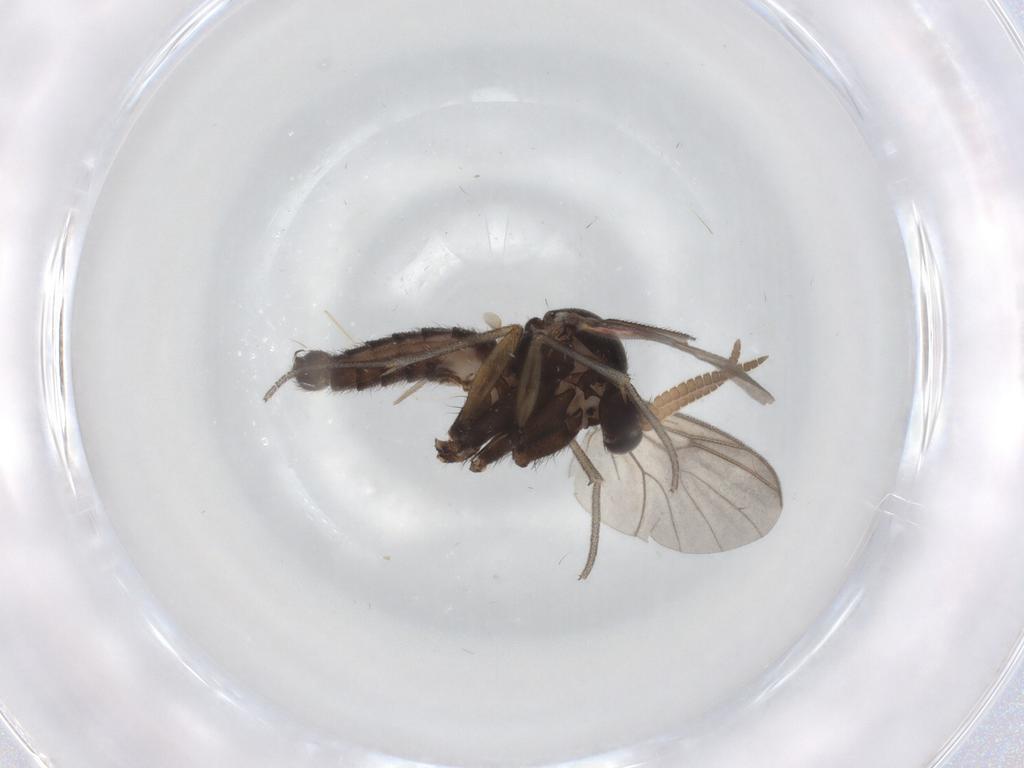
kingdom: Animalia
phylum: Arthropoda
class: Insecta
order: Diptera
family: Mycetophilidae
